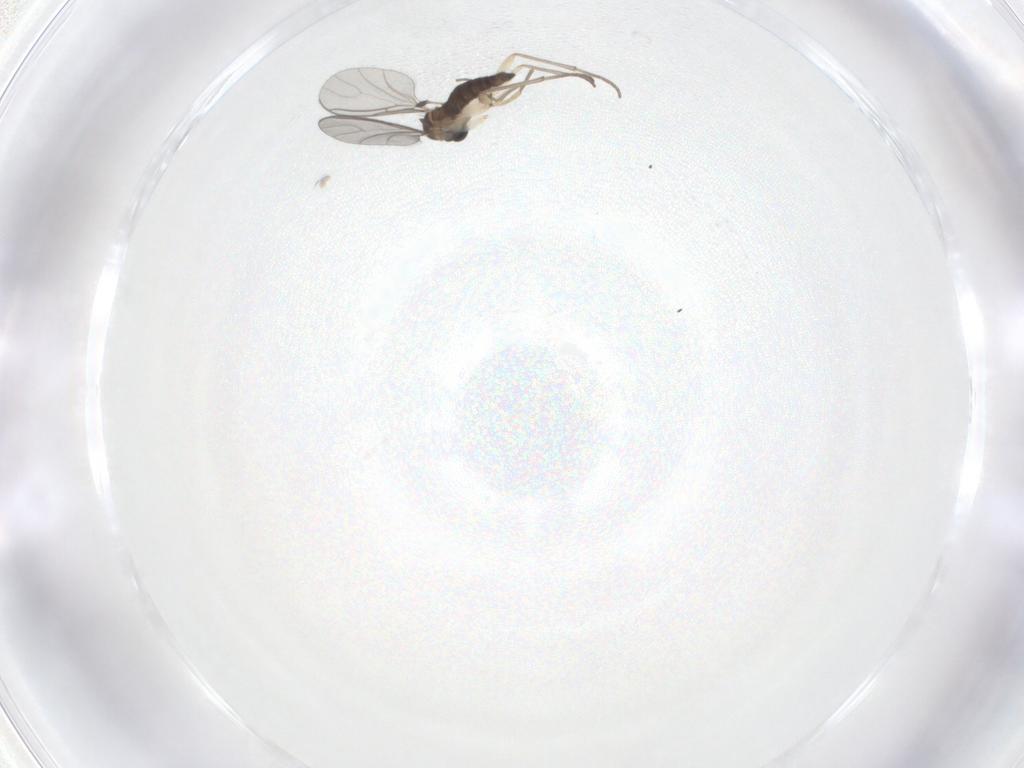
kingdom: Animalia
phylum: Arthropoda
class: Insecta
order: Diptera
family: Sciaridae
